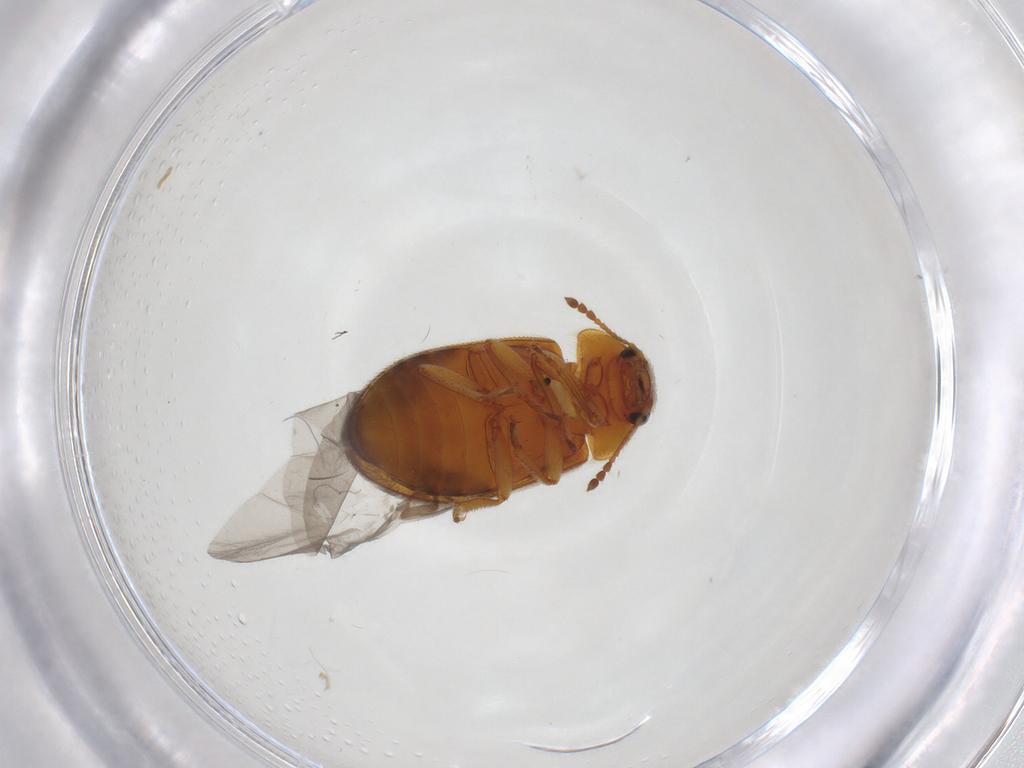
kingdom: Animalia
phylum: Arthropoda
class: Insecta
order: Coleoptera
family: Byturidae
